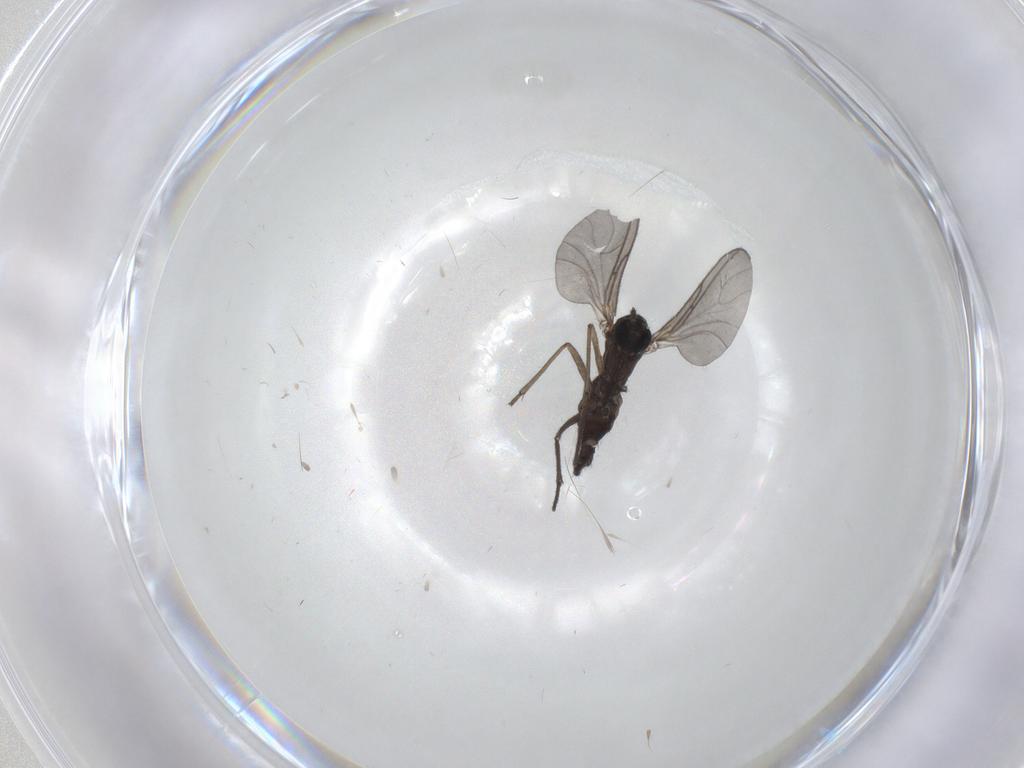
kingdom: Animalia
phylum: Arthropoda
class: Insecta
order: Diptera
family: Sciaridae
